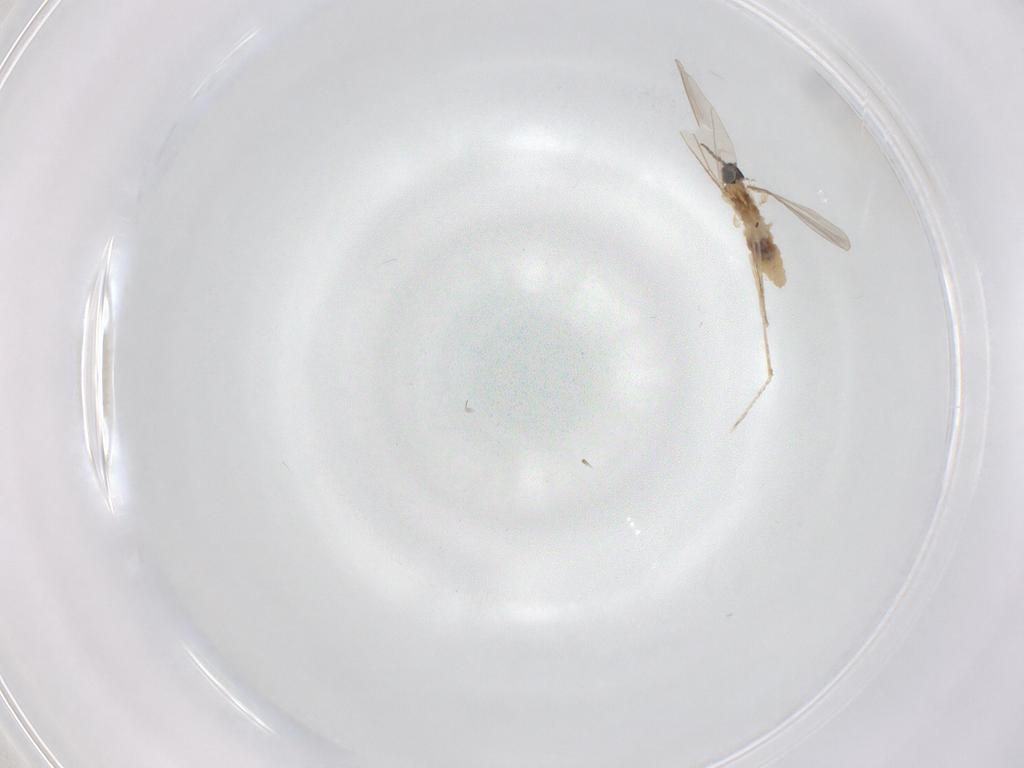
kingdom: Animalia
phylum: Arthropoda
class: Insecta
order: Diptera
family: Cecidomyiidae
